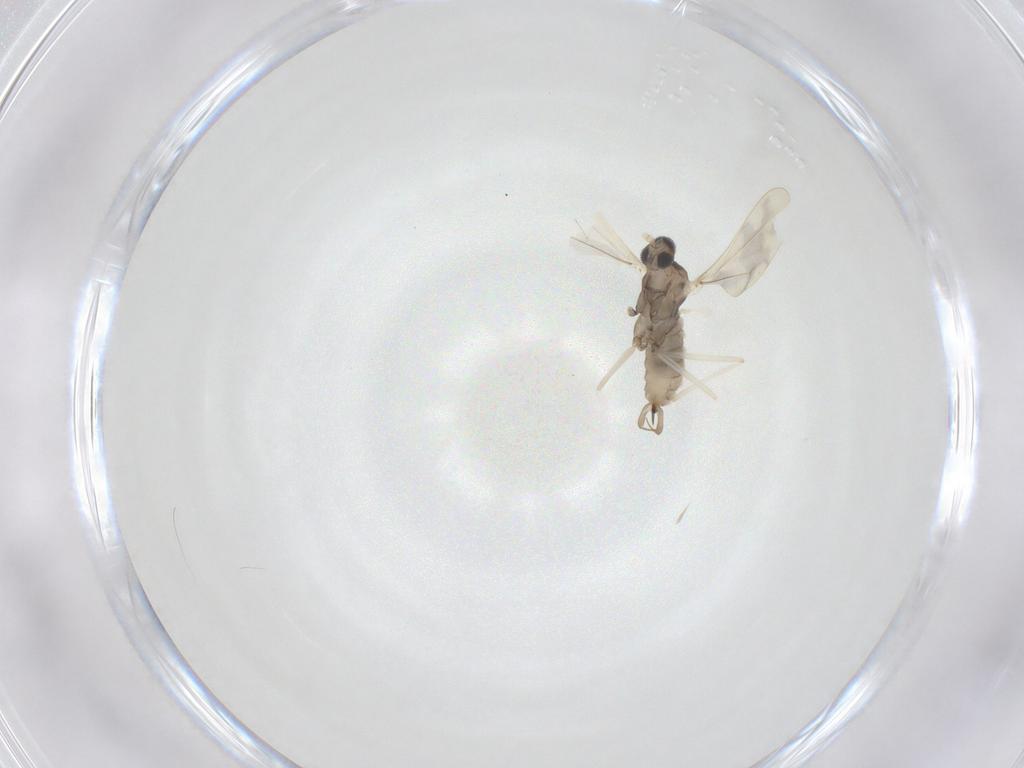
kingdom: Animalia
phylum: Arthropoda
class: Insecta
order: Diptera
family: Cecidomyiidae
